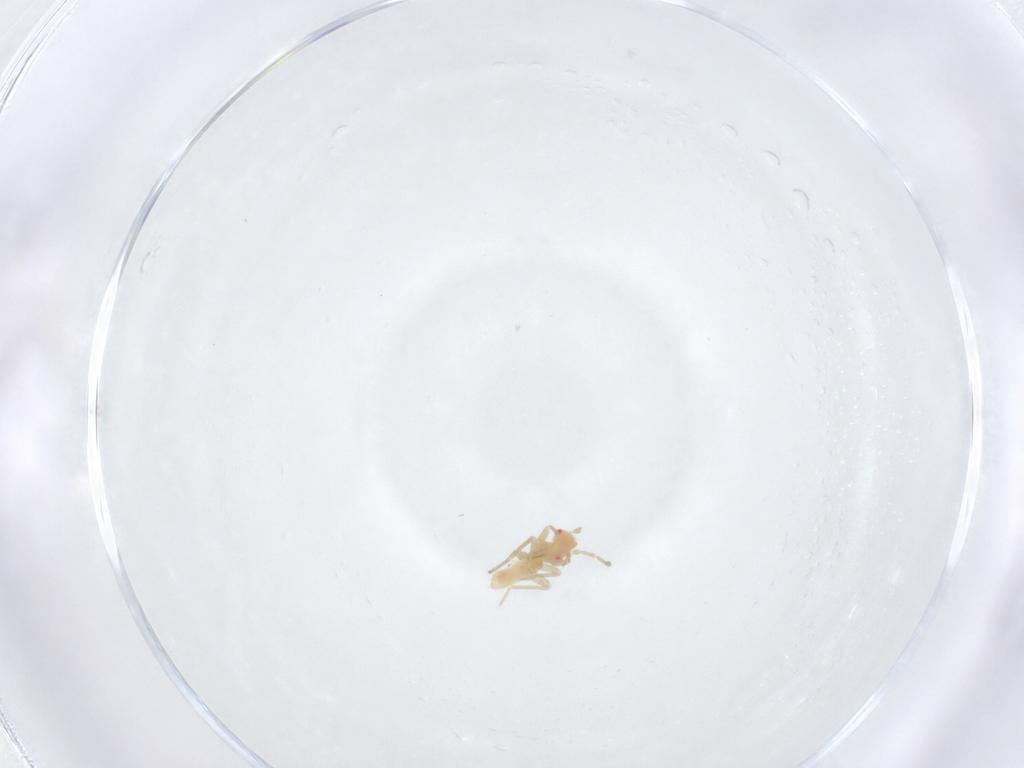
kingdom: Animalia
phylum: Arthropoda
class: Insecta
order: Hemiptera
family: Miridae
